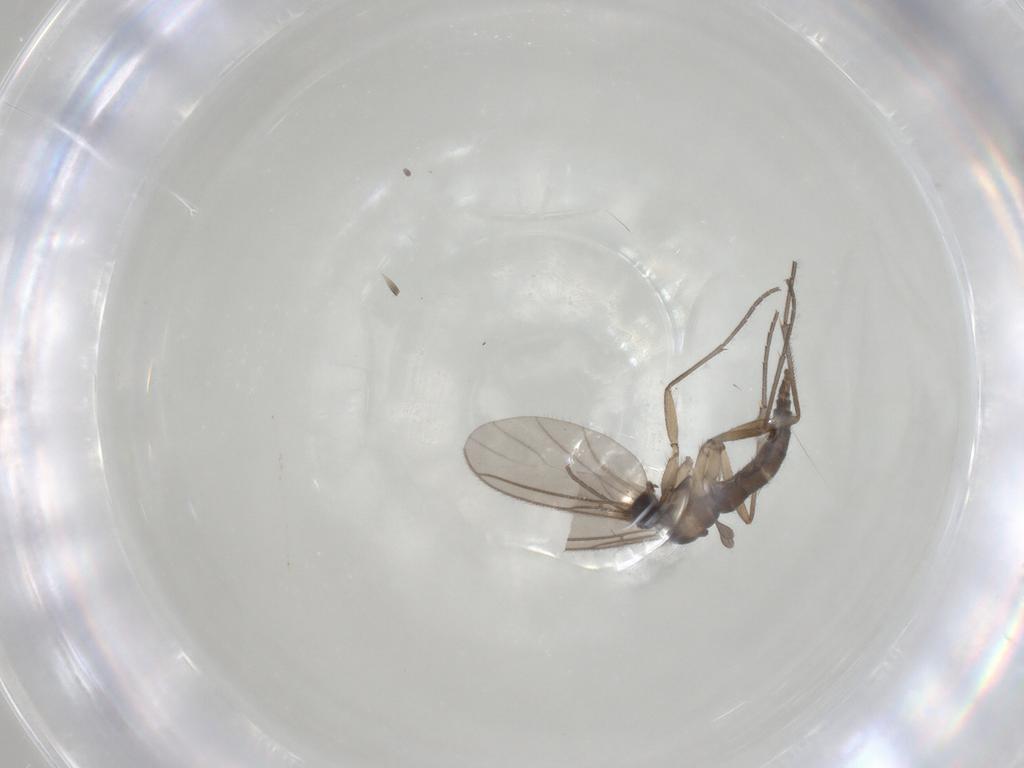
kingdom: Animalia
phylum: Arthropoda
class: Insecta
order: Diptera
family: Sciaridae
